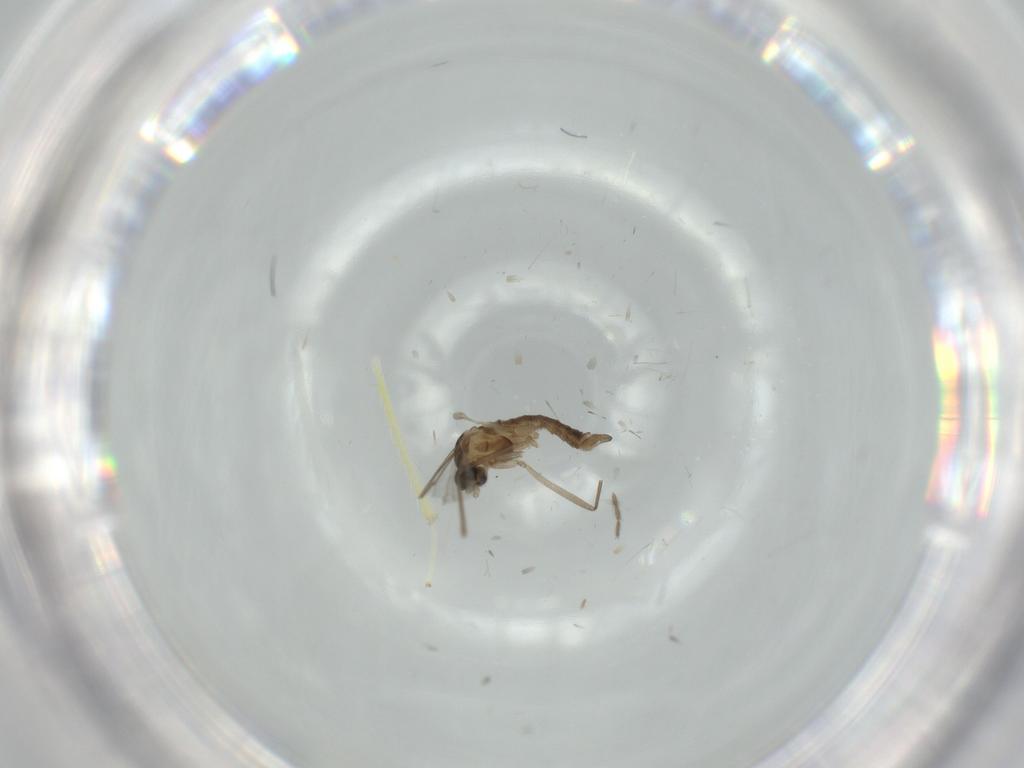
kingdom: Animalia
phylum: Arthropoda
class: Insecta
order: Diptera
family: Cecidomyiidae
